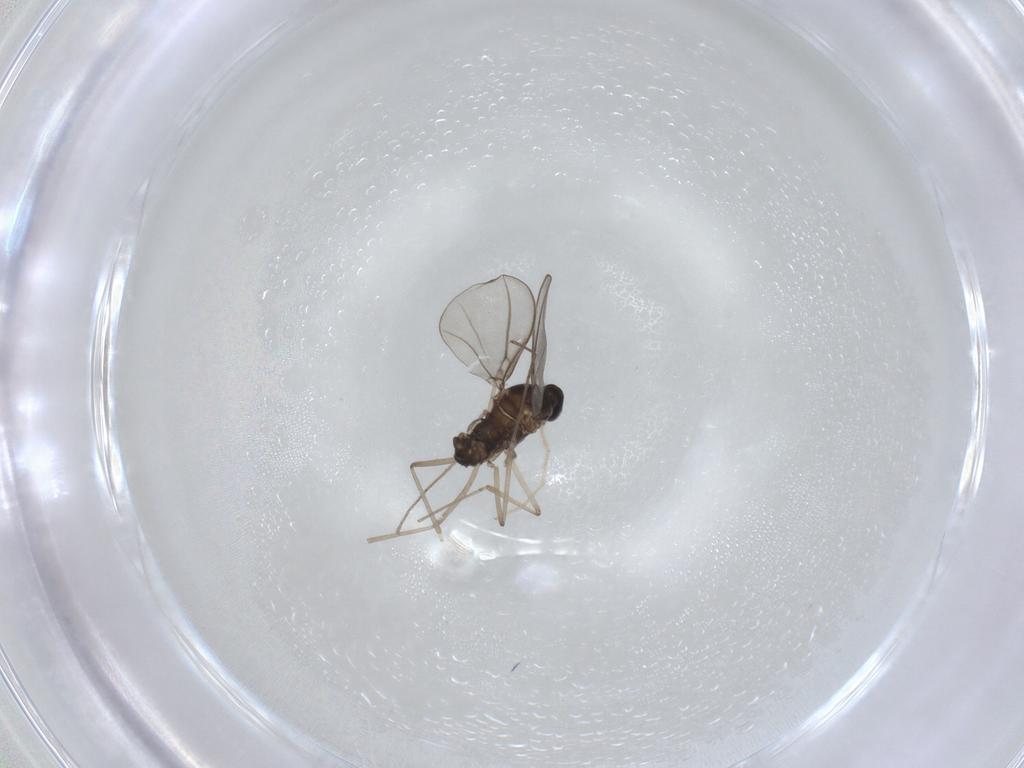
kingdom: Animalia
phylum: Arthropoda
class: Insecta
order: Diptera
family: Cecidomyiidae
